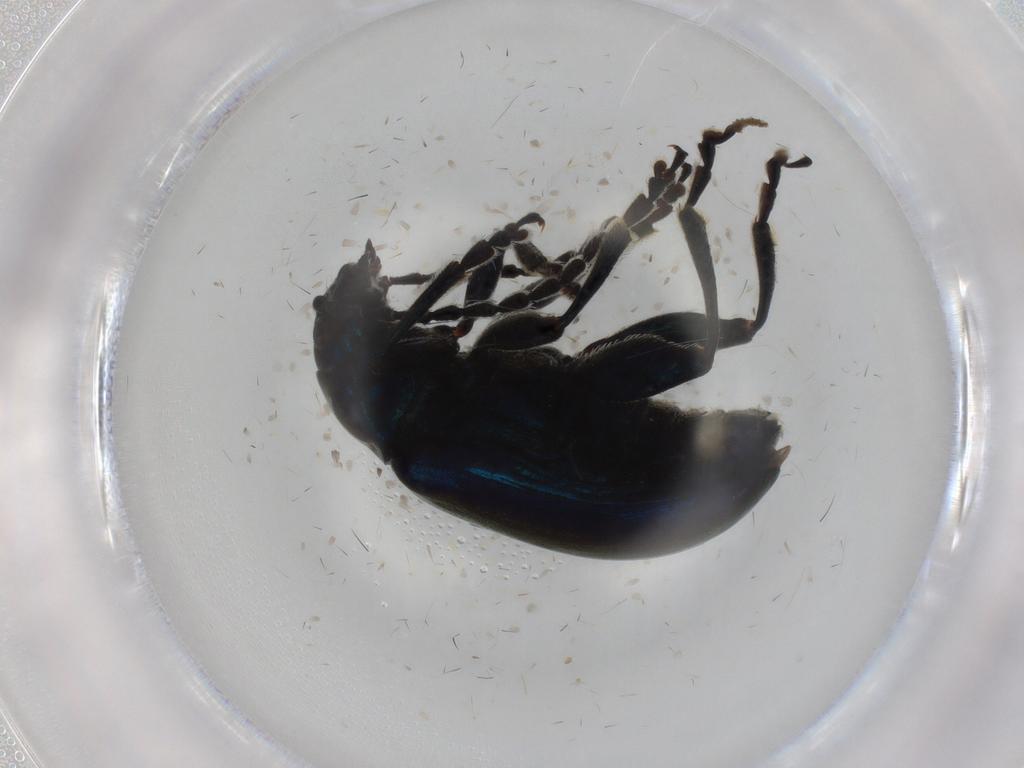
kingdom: Animalia
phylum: Arthropoda
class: Insecta
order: Coleoptera
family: Chrysomelidae
